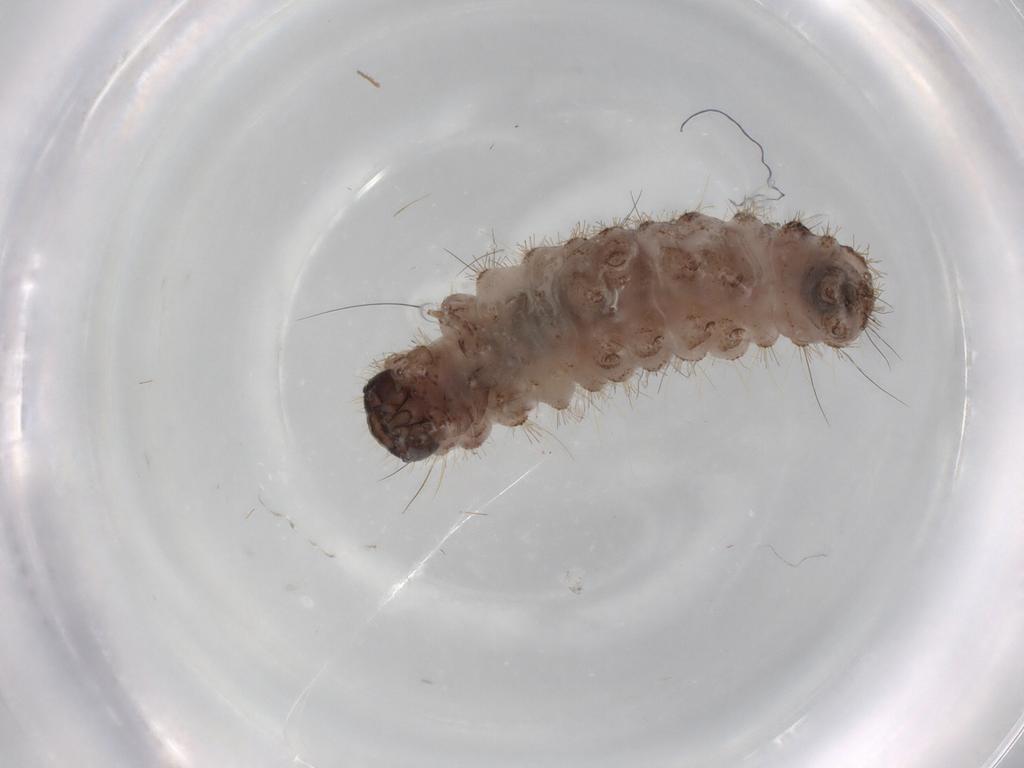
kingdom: Animalia
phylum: Arthropoda
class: Insecta
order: Lepidoptera
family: Erebidae
